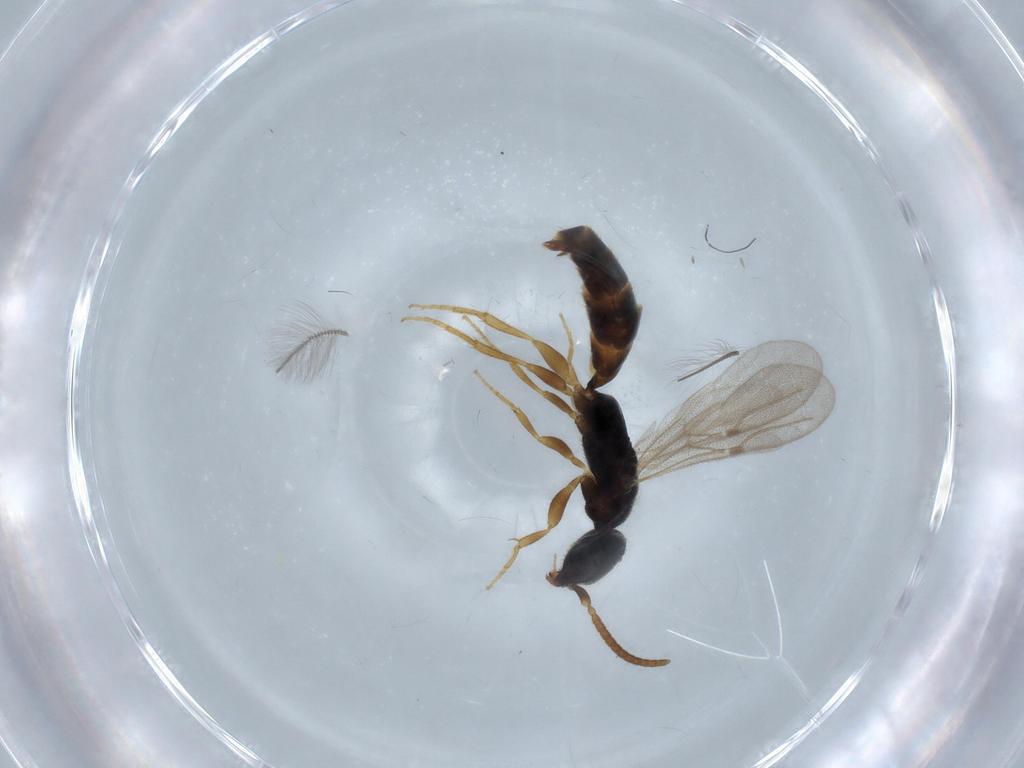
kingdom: Animalia
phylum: Arthropoda
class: Insecta
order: Hymenoptera
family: Bethylidae
